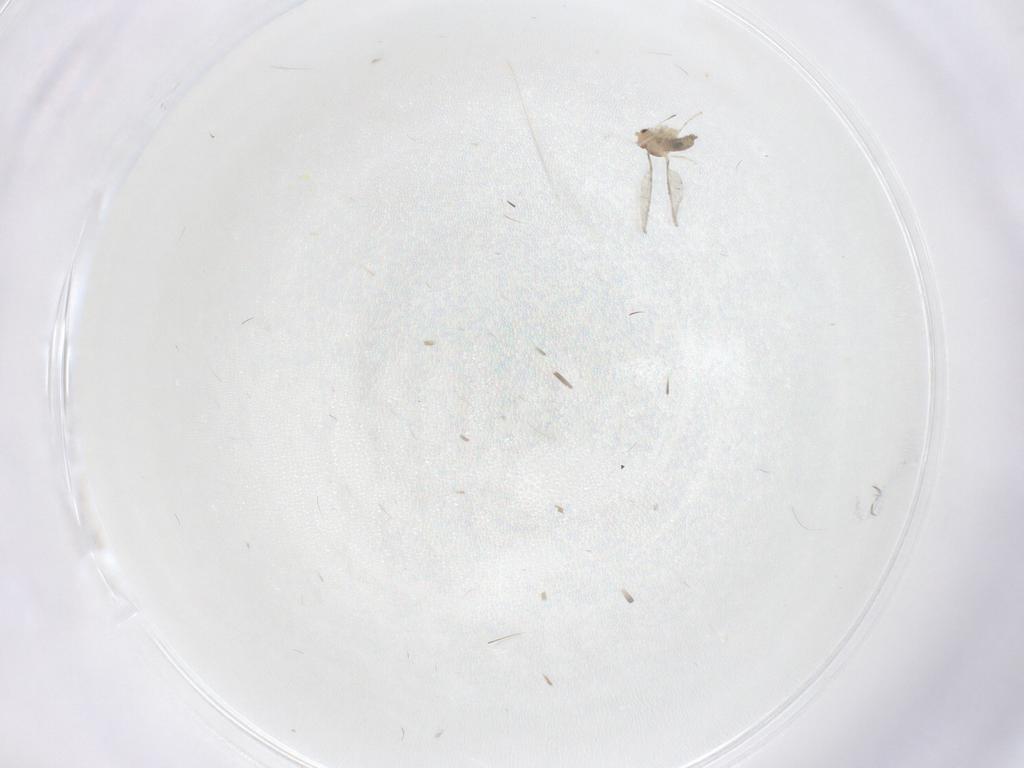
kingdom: Animalia
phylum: Arthropoda
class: Insecta
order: Diptera
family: Cecidomyiidae
